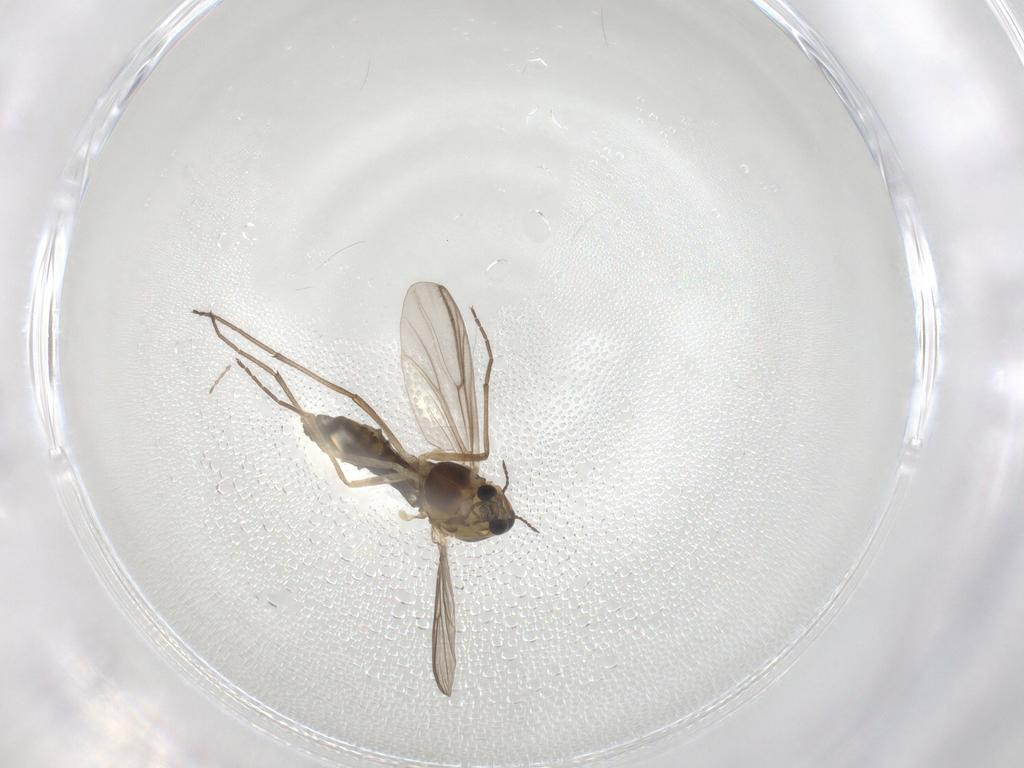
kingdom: Animalia
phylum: Arthropoda
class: Insecta
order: Diptera
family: Chironomidae
